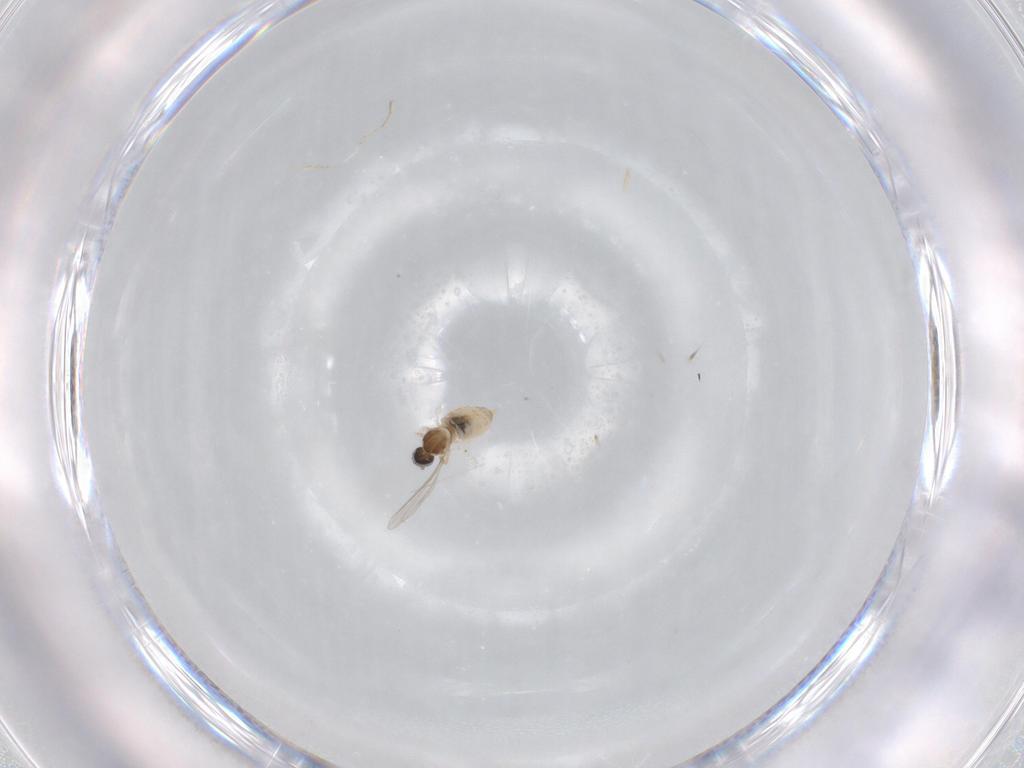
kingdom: Animalia
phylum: Arthropoda
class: Insecta
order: Diptera
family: Cecidomyiidae
